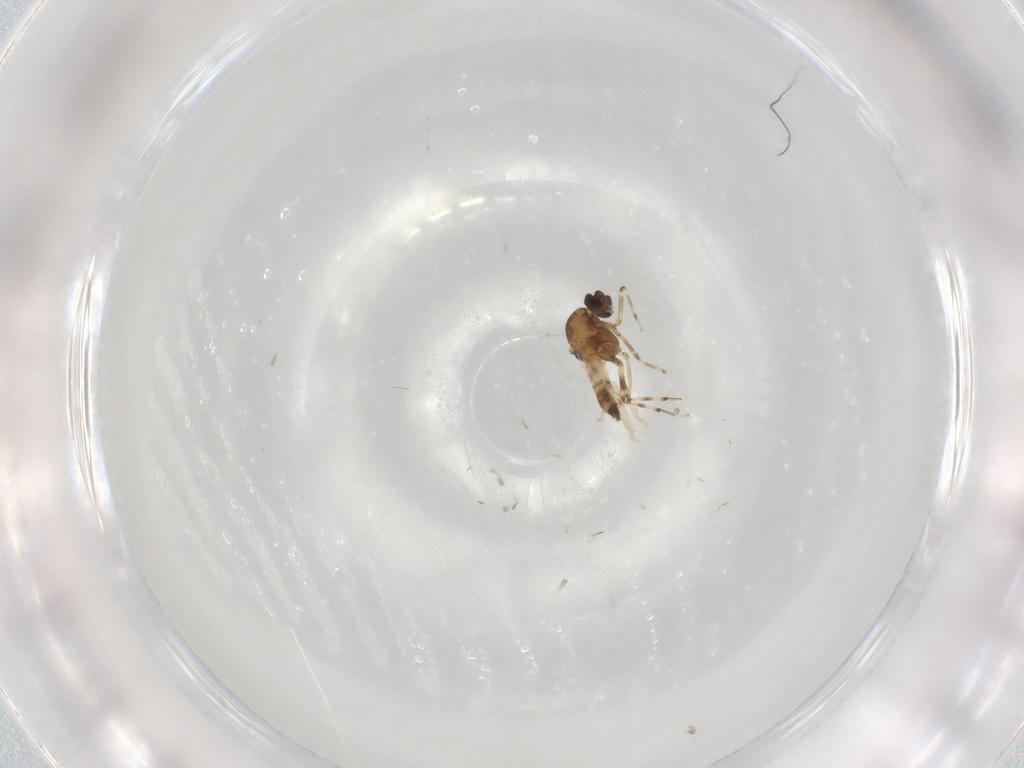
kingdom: Animalia
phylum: Arthropoda
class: Insecta
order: Diptera
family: Ceratopogonidae
